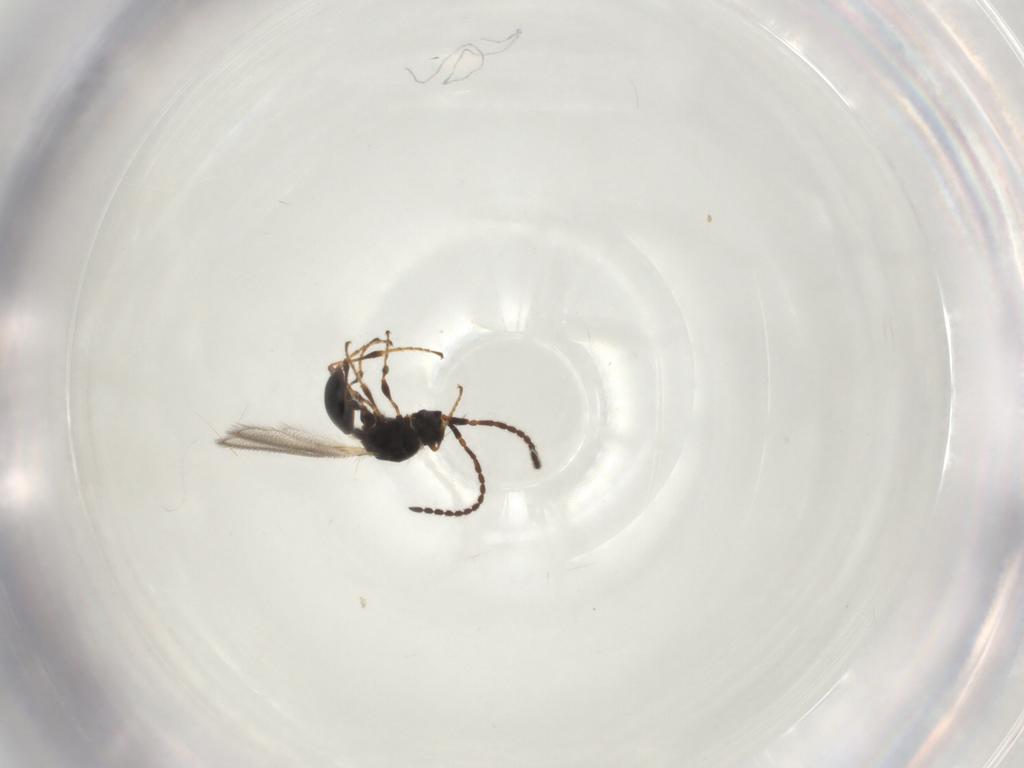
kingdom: Animalia
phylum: Arthropoda
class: Insecta
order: Hymenoptera
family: Diapriidae
